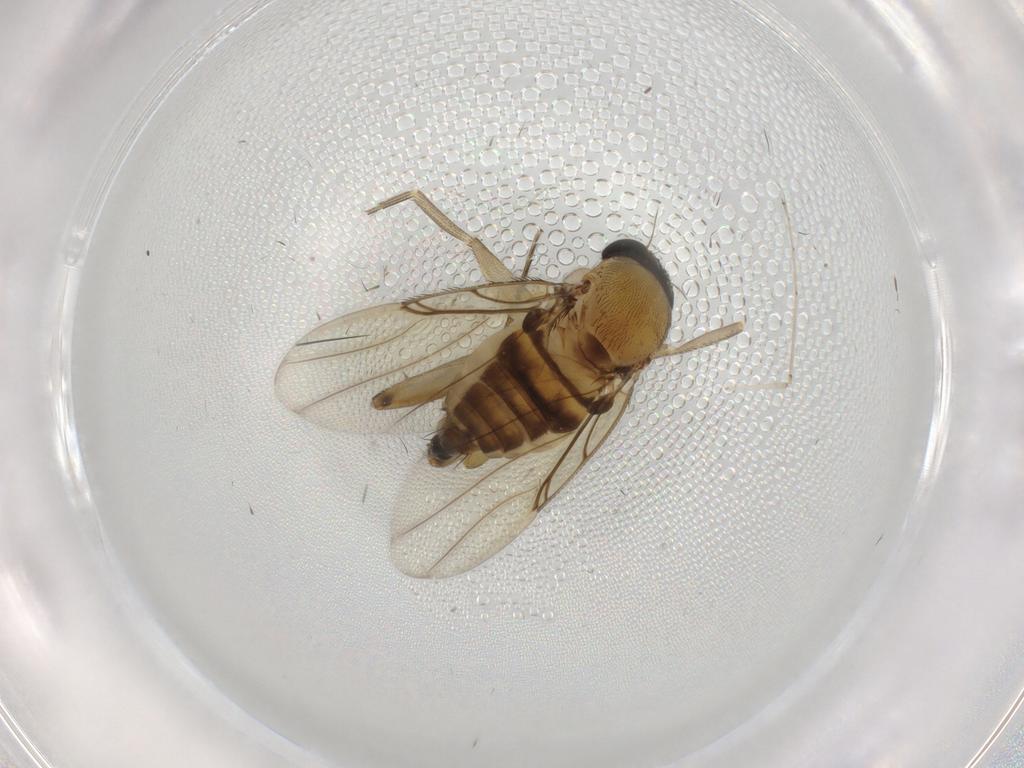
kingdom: Animalia
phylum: Arthropoda
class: Insecta
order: Diptera
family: Phoridae
